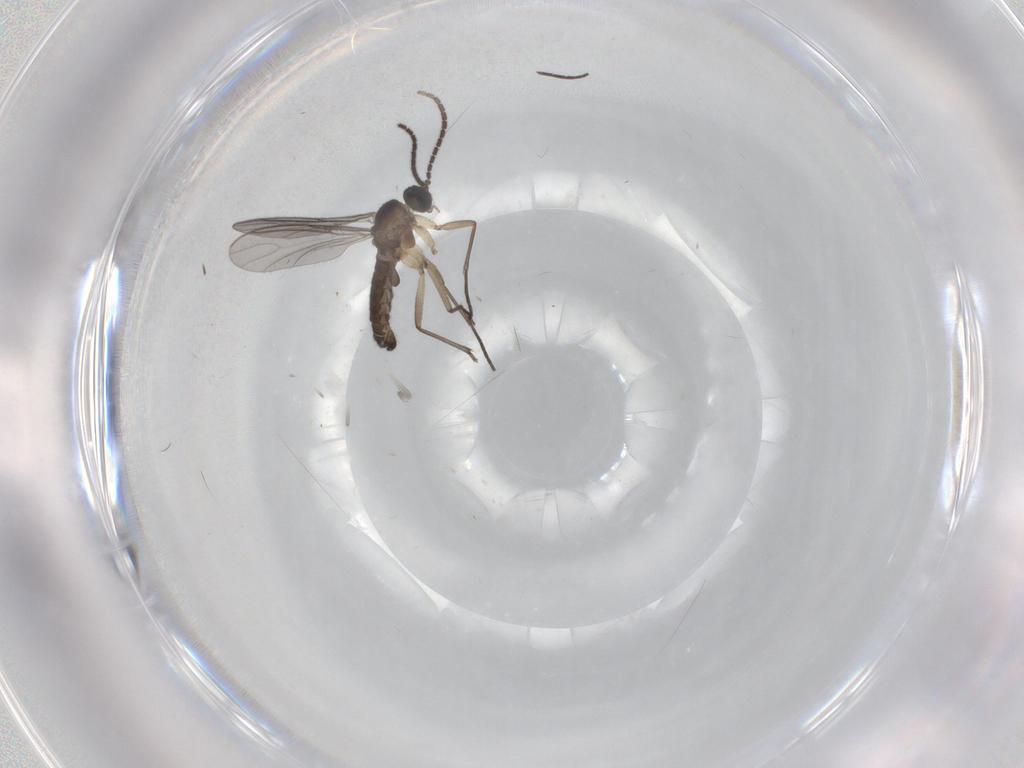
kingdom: Animalia
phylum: Arthropoda
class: Insecta
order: Diptera
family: Sciaridae
